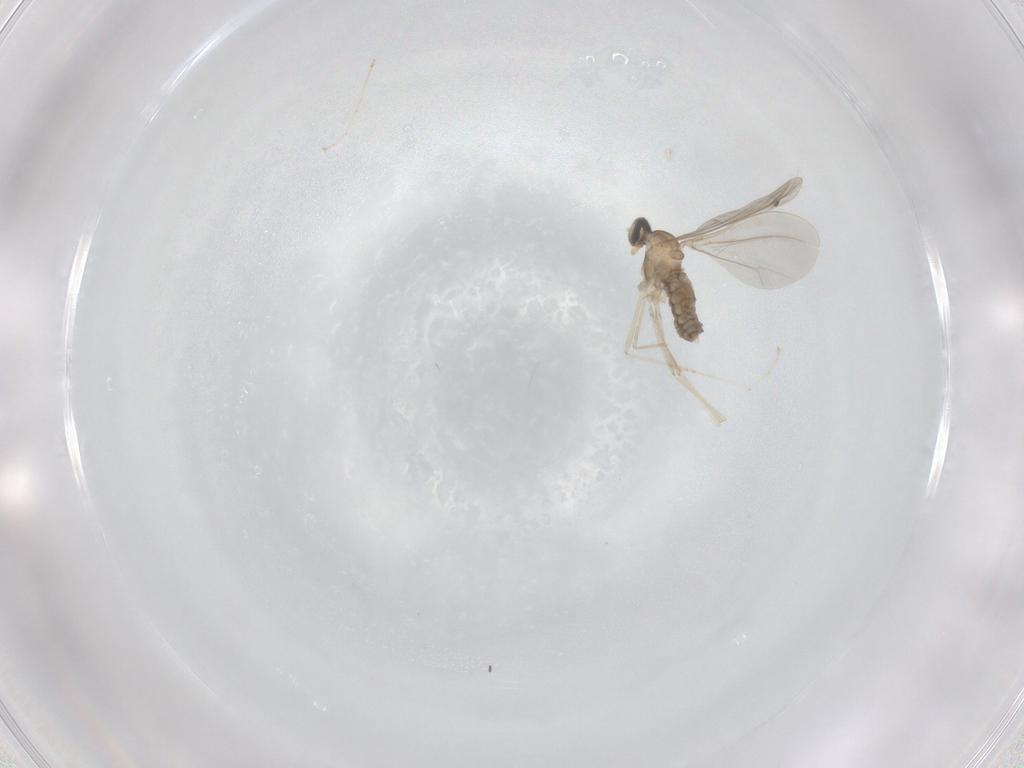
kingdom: Animalia
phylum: Arthropoda
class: Insecta
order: Diptera
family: Cecidomyiidae
